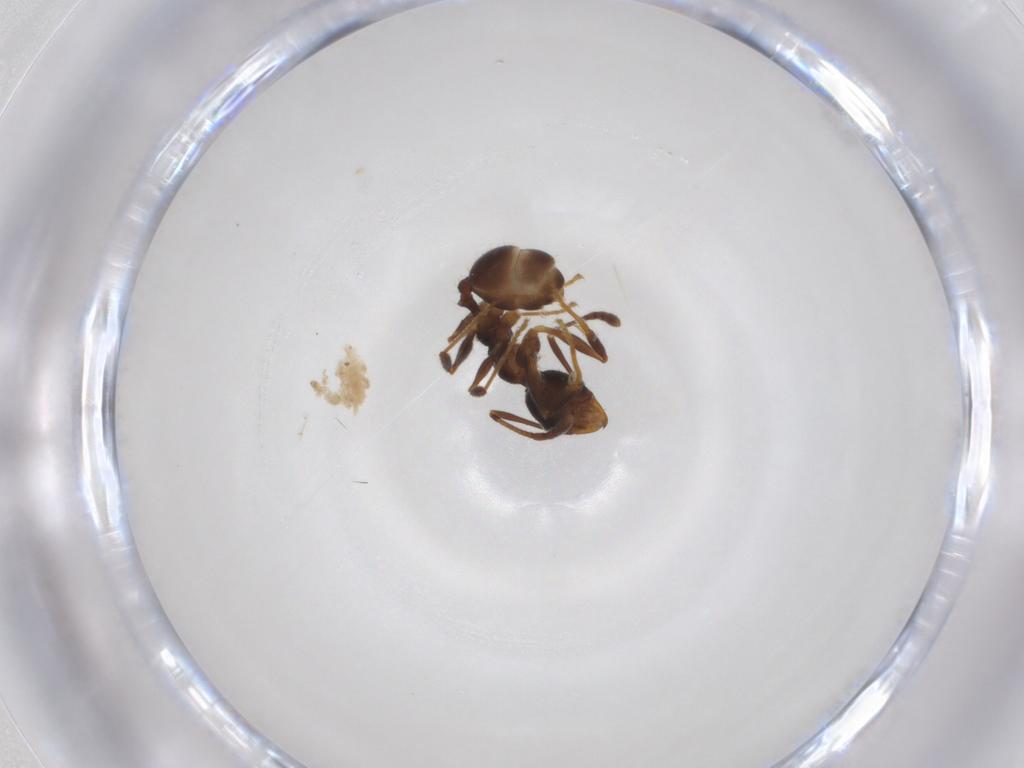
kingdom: Animalia
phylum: Arthropoda
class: Insecta
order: Hymenoptera
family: Formicidae
